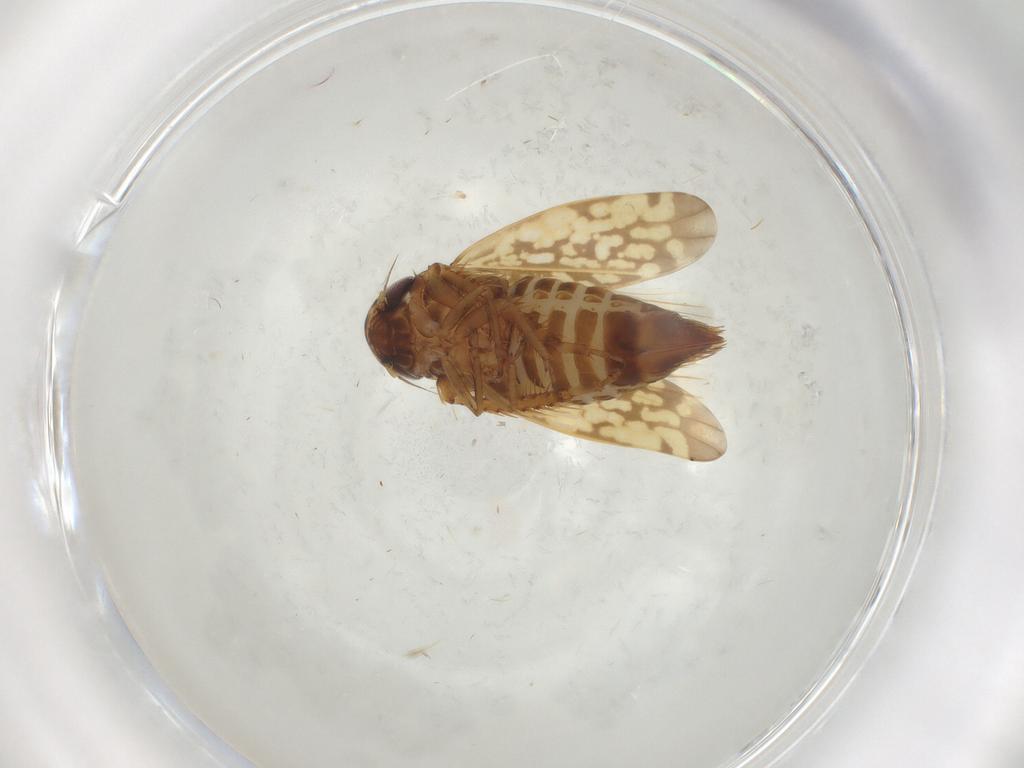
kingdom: Animalia
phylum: Arthropoda
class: Insecta
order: Hemiptera
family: Cicadellidae
